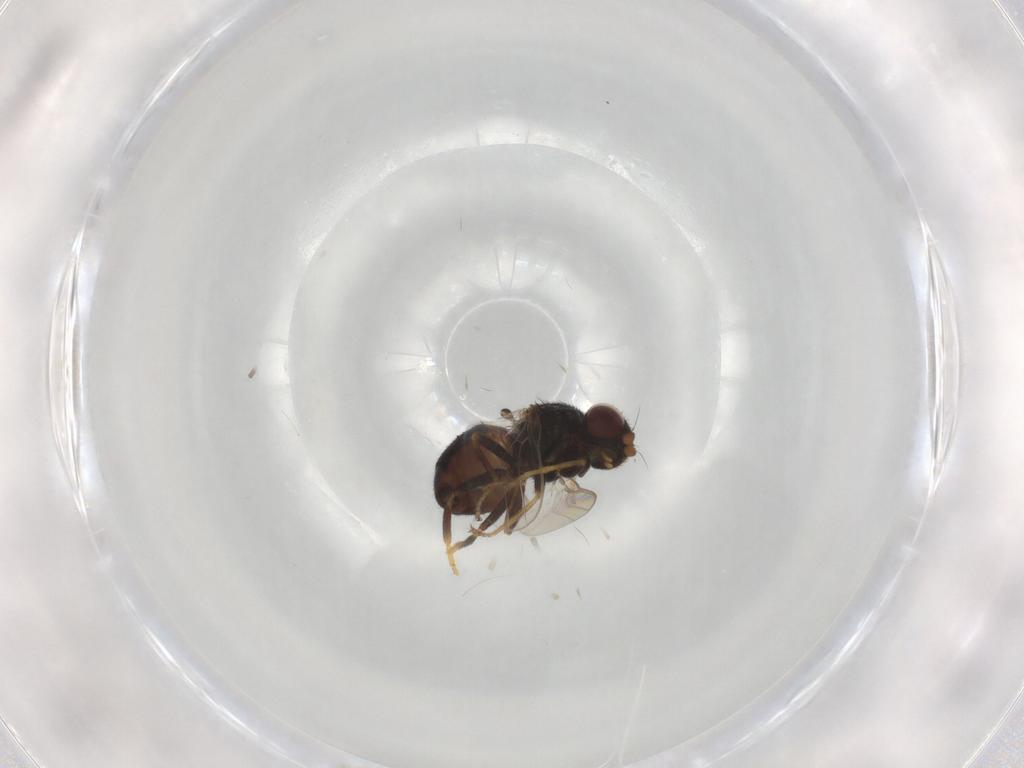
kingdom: Animalia
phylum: Arthropoda
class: Insecta
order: Diptera
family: Chloropidae
